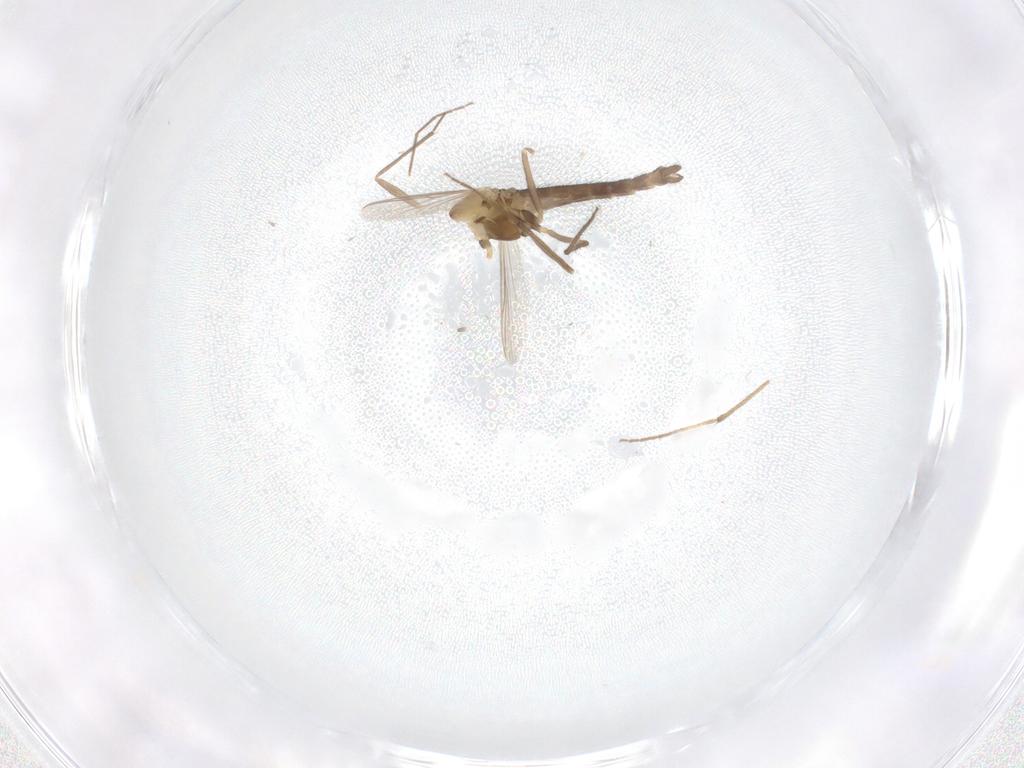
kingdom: Animalia
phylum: Arthropoda
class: Insecta
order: Diptera
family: Chironomidae
